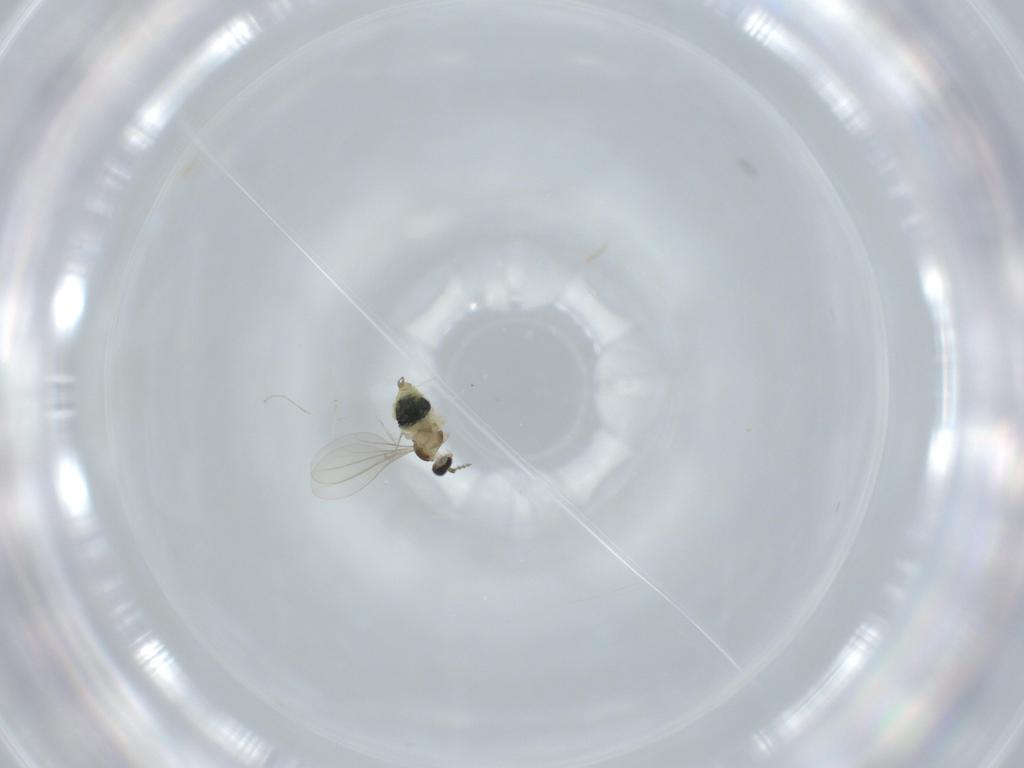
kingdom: Animalia
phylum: Arthropoda
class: Insecta
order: Diptera
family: Cecidomyiidae
